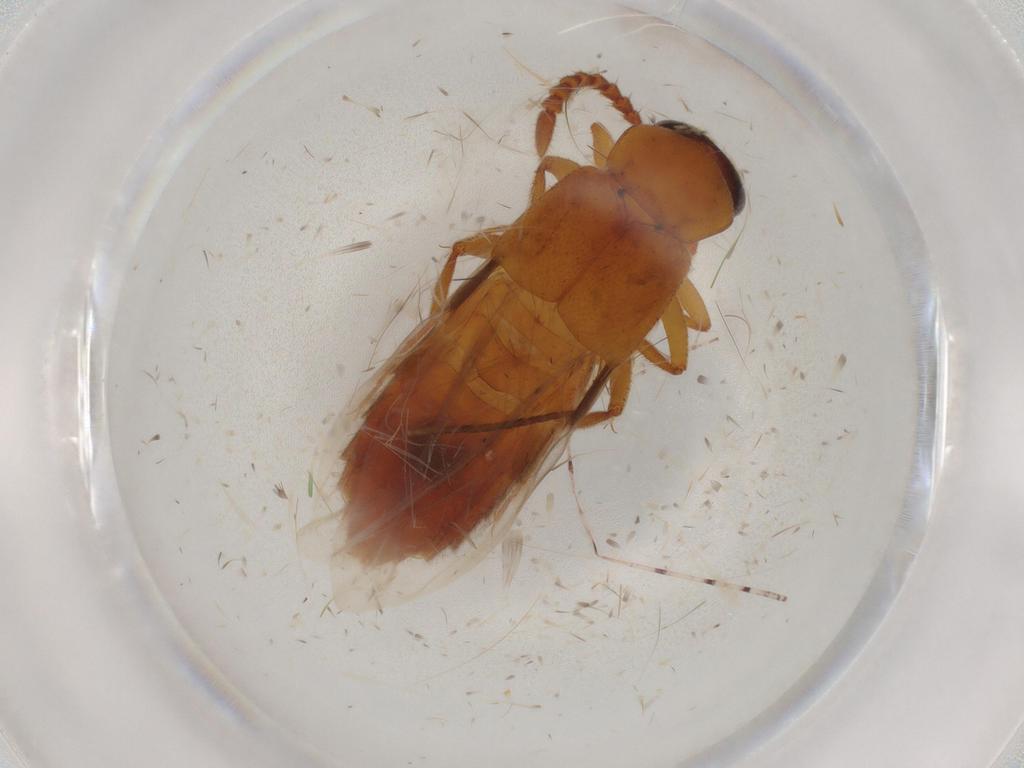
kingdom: Animalia
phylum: Arthropoda
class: Insecta
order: Coleoptera
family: Staphylinidae
